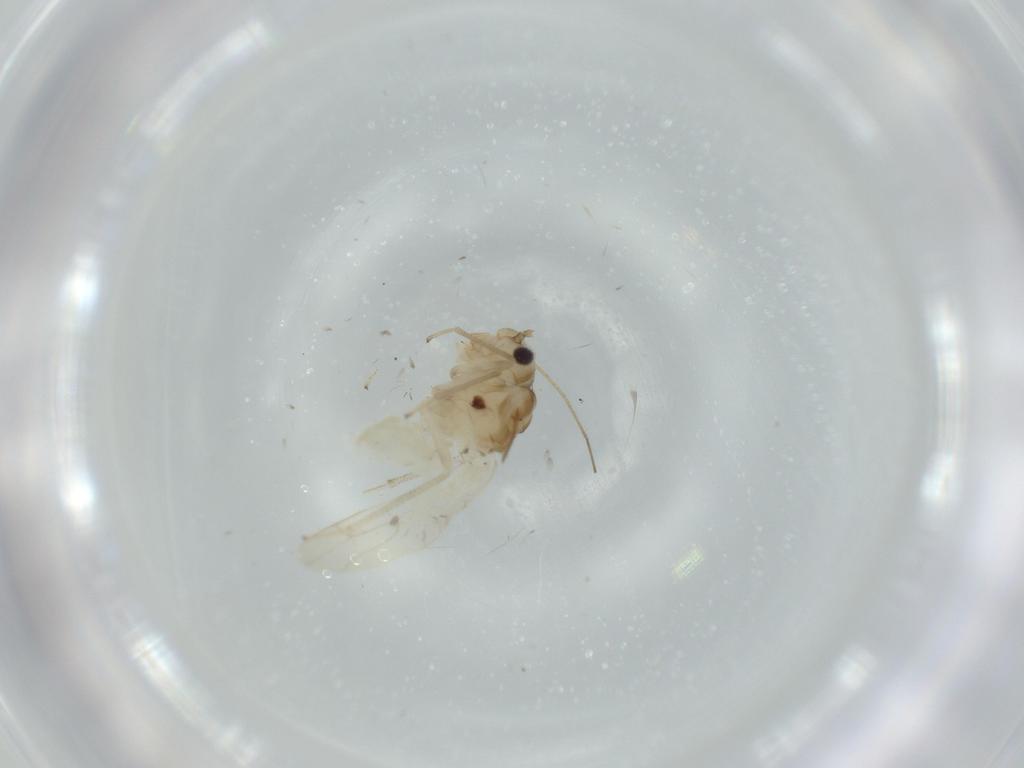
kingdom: Animalia
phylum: Arthropoda
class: Insecta
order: Psocodea
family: Caeciliusidae
